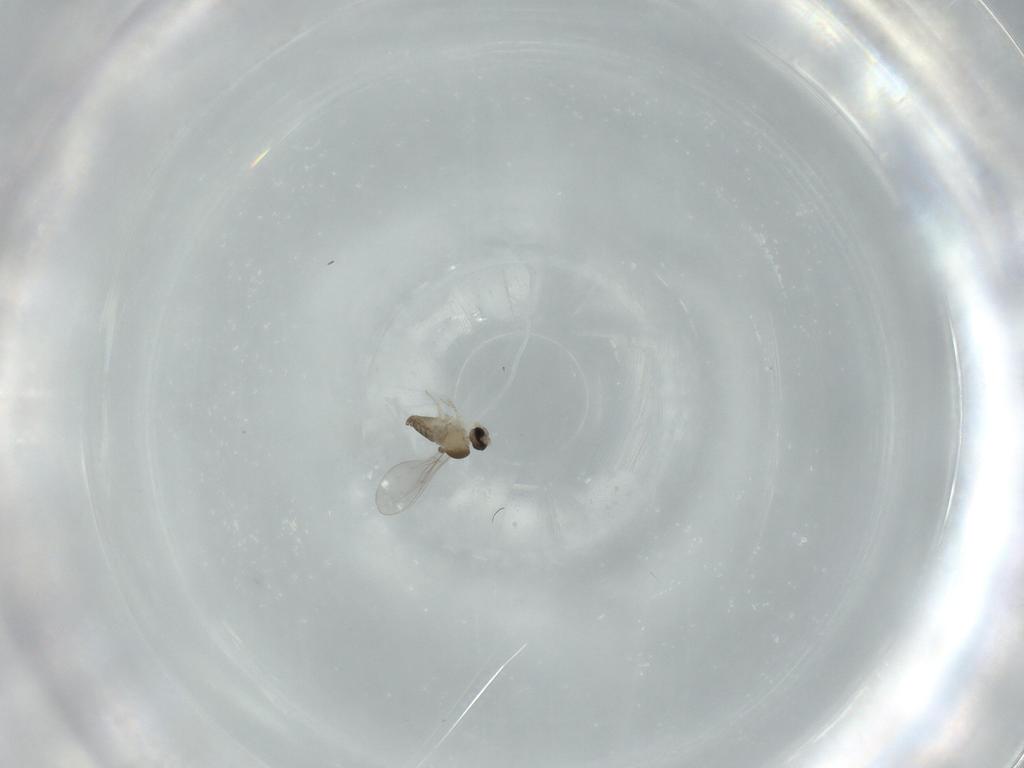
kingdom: Animalia
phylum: Arthropoda
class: Insecta
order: Diptera
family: Cecidomyiidae
